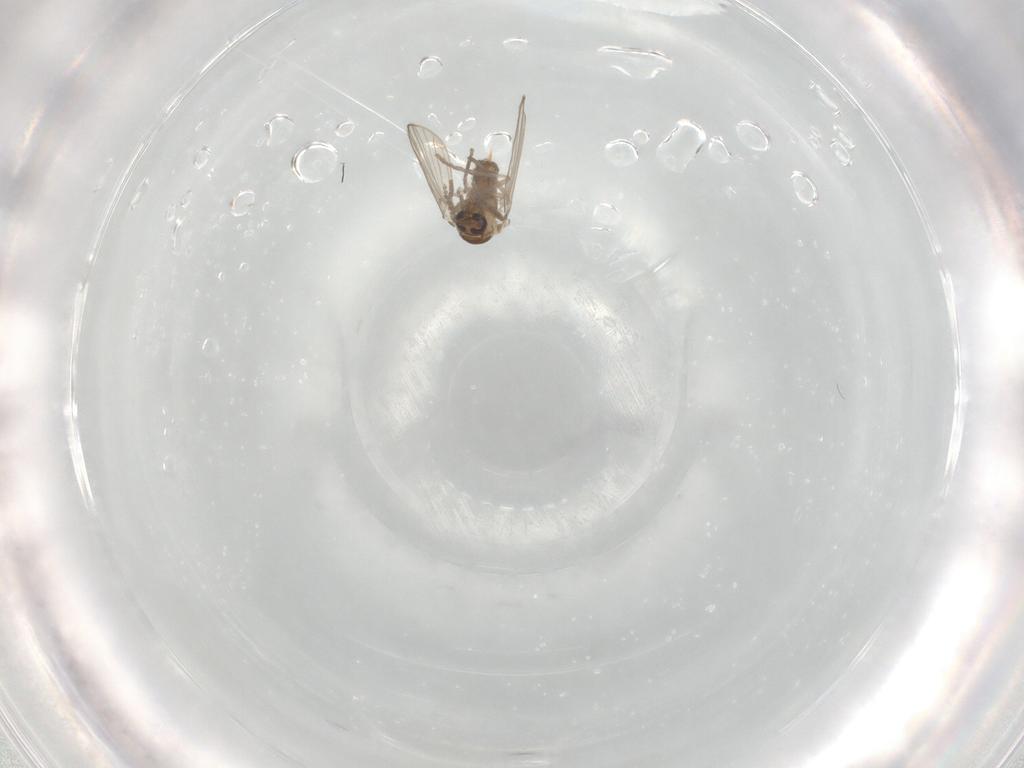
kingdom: Animalia
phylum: Arthropoda
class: Insecta
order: Diptera
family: Psychodidae
